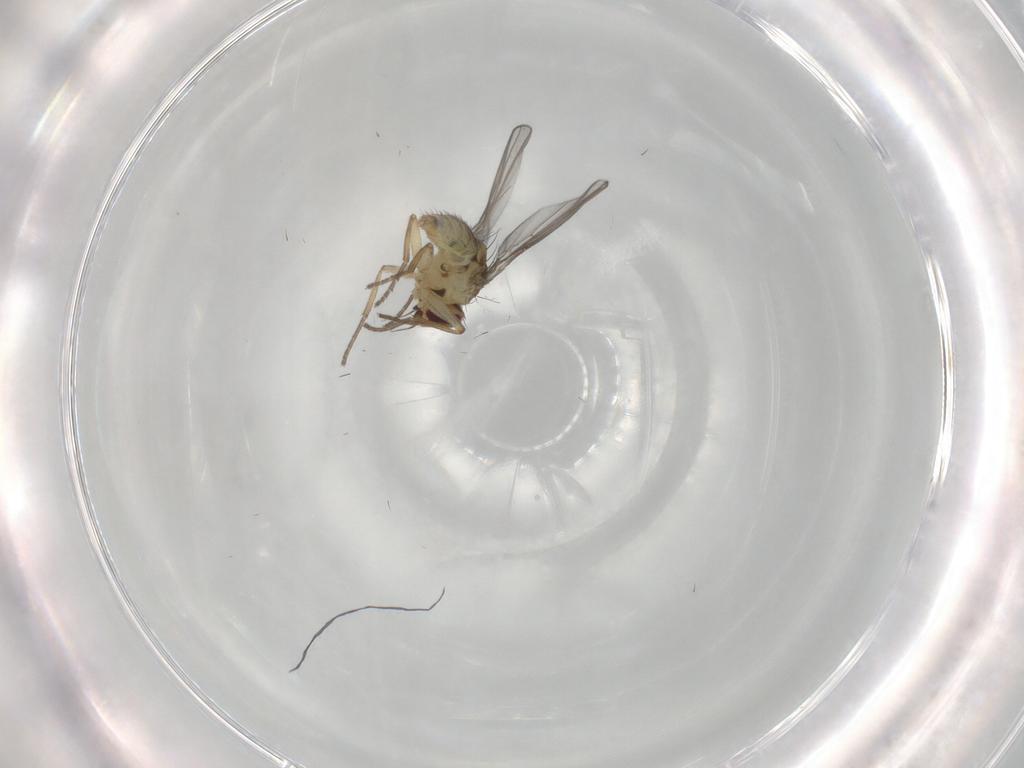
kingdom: Animalia
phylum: Arthropoda
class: Insecta
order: Diptera
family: Agromyzidae
